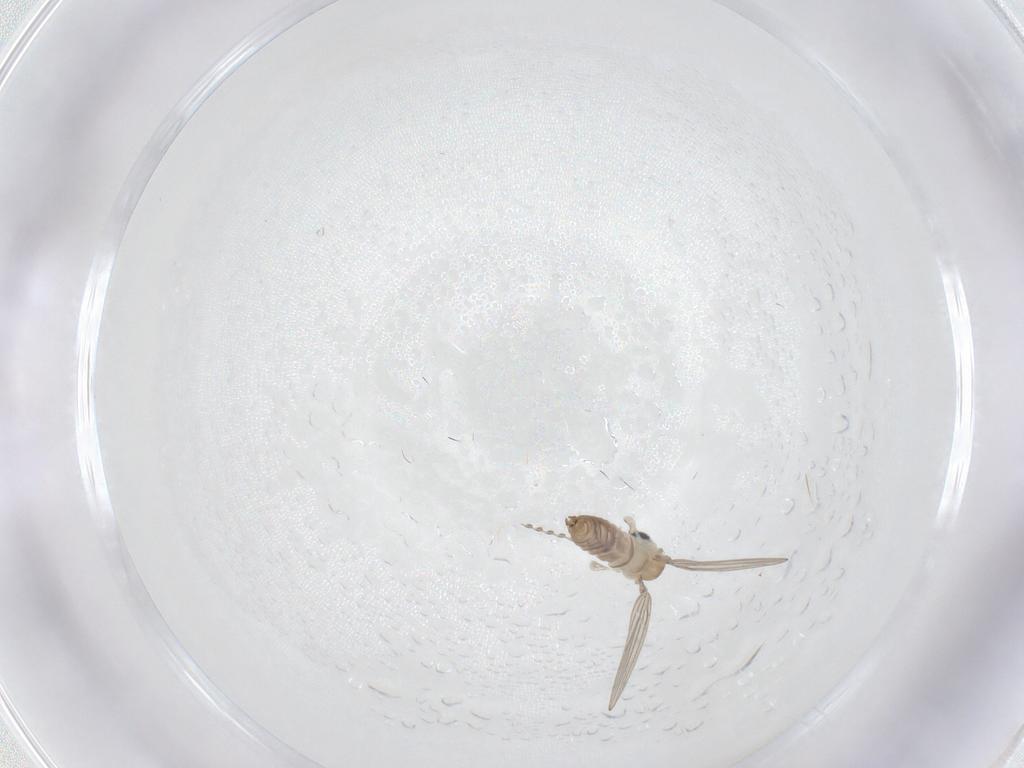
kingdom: Animalia
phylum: Arthropoda
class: Insecta
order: Diptera
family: Psychodidae
